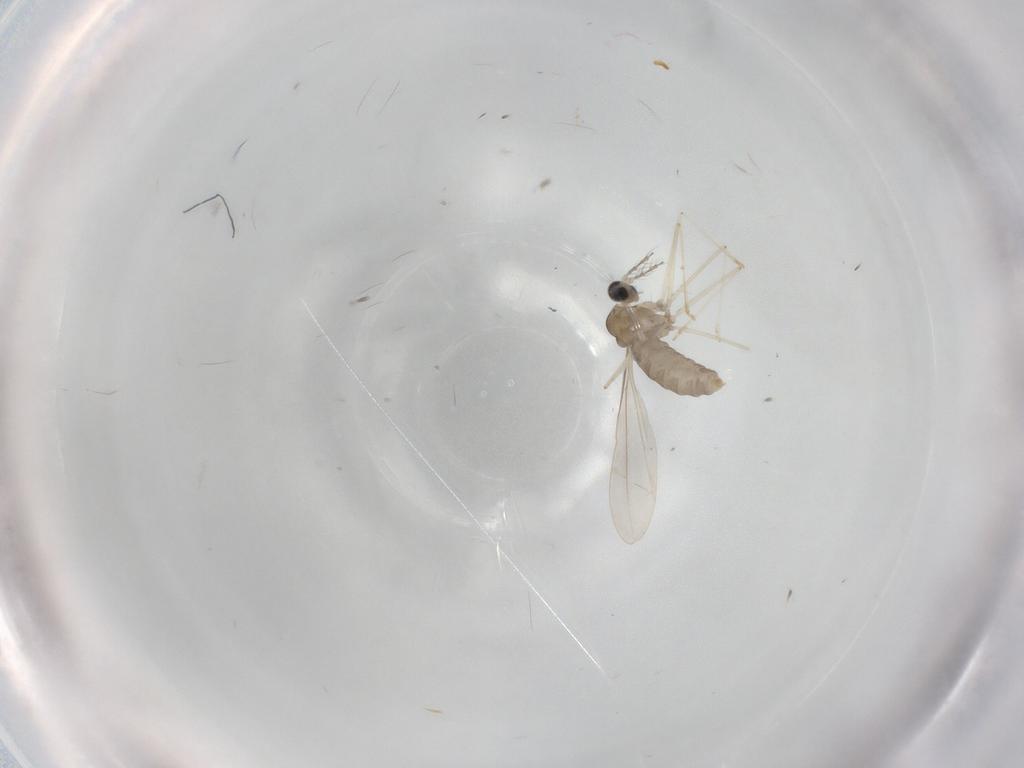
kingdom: Animalia
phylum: Arthropoda
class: Insecta
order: Diptera
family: Cecidomyiidae
